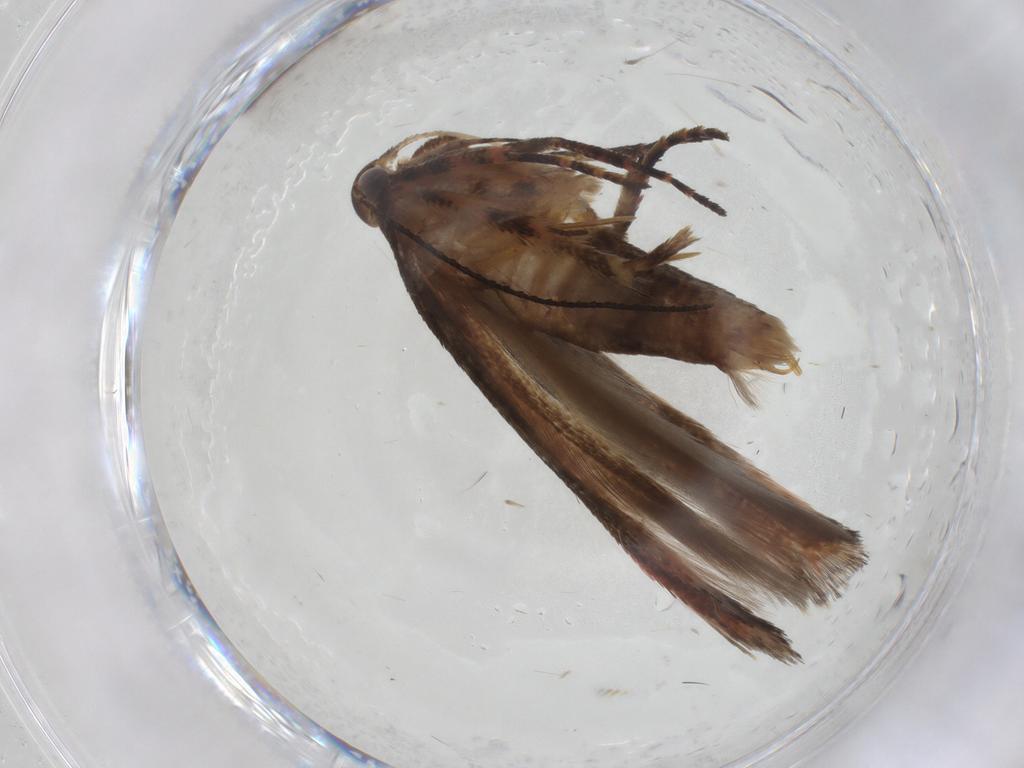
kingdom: Animalia
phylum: Arthropoda
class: Insecta
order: Lepidoptera
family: Gelechiidae
